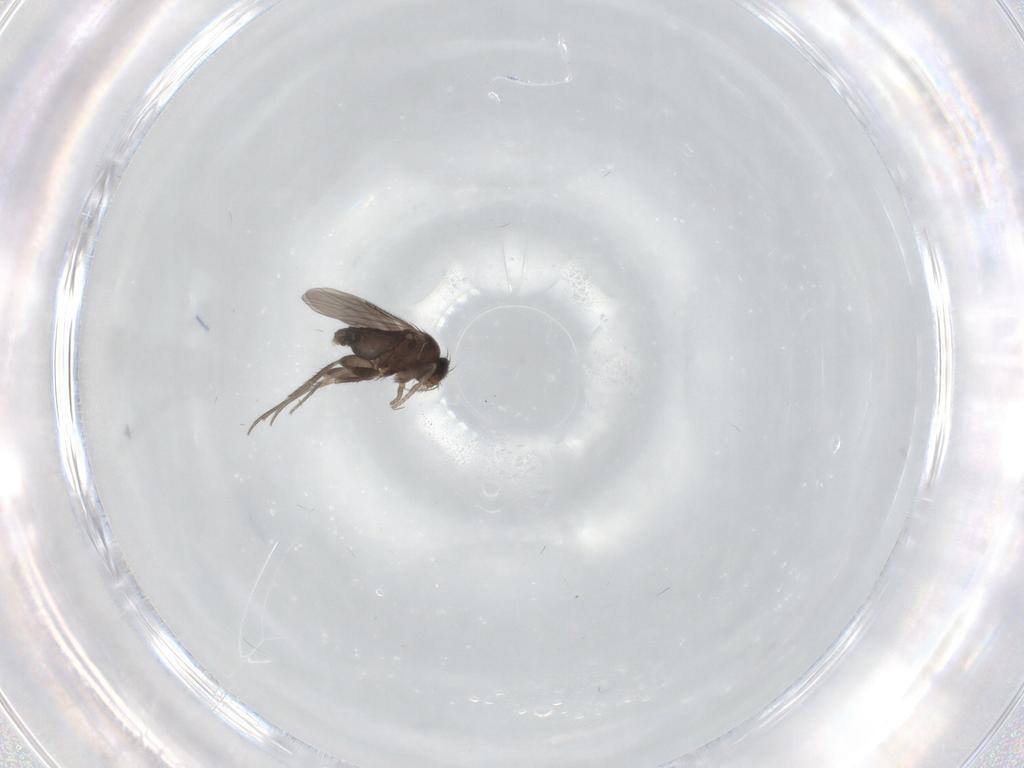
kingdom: Animalia
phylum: Arthropoda
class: Insecta
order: Diptera
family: Phoridae
